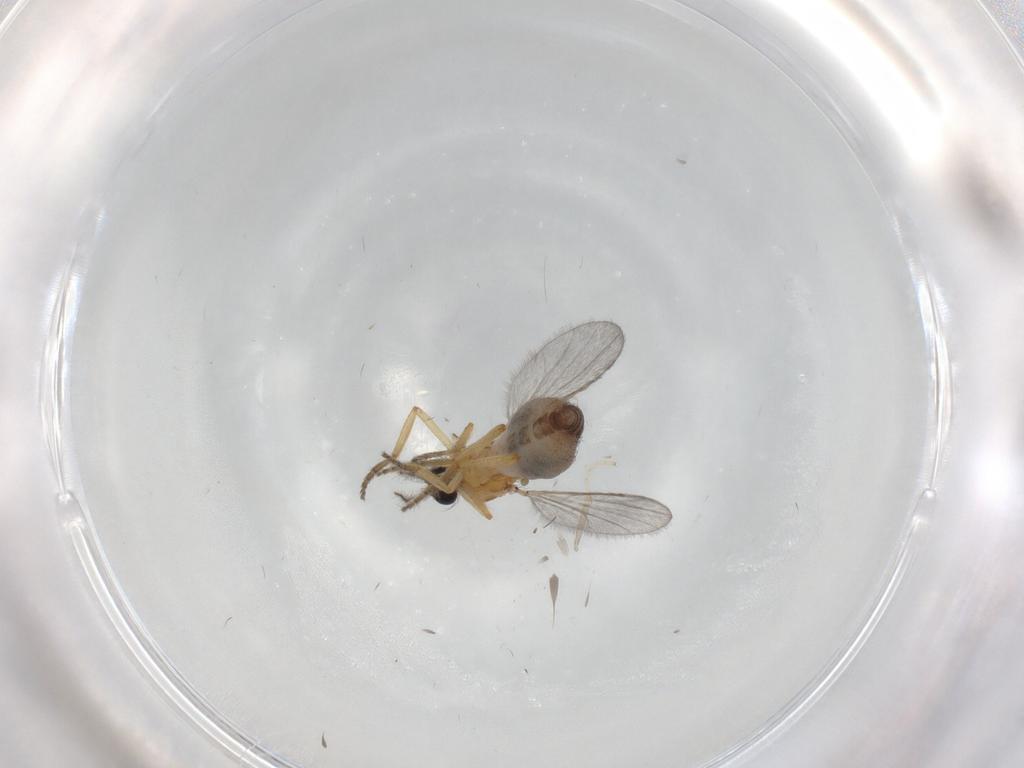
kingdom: Animalia
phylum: Arthropoda
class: Insecta
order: Diptera
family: Ceratopogonidae
